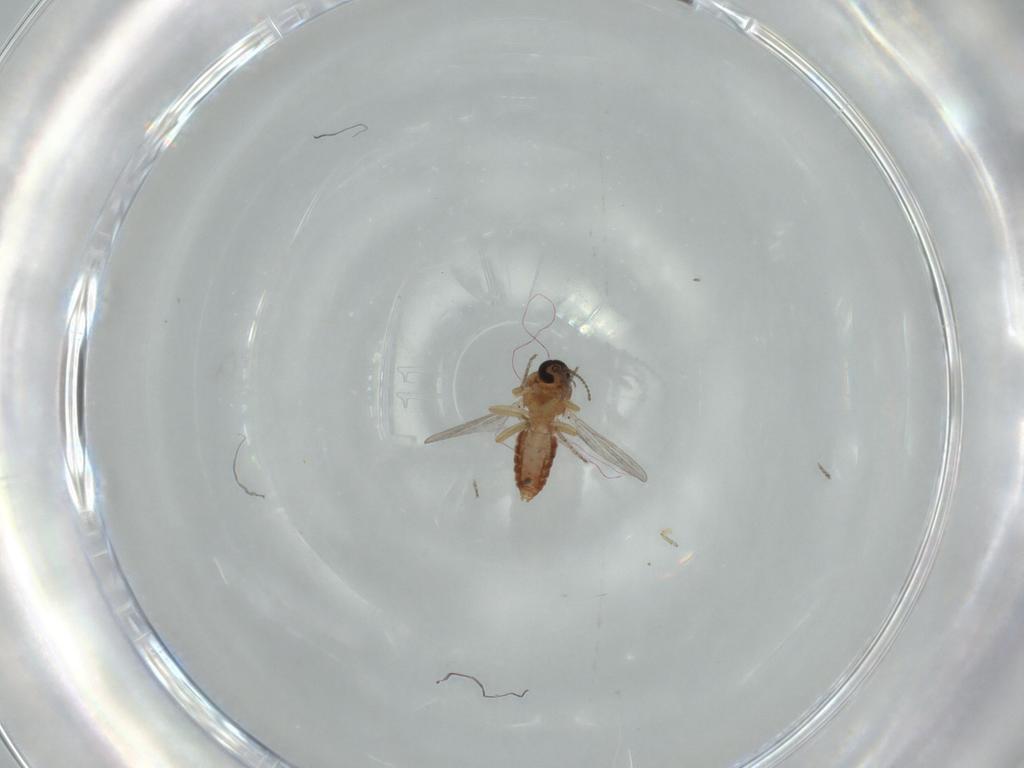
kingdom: Animalia
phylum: Arthropoda
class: Insecta
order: Diptera
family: Ceratopogonidae
